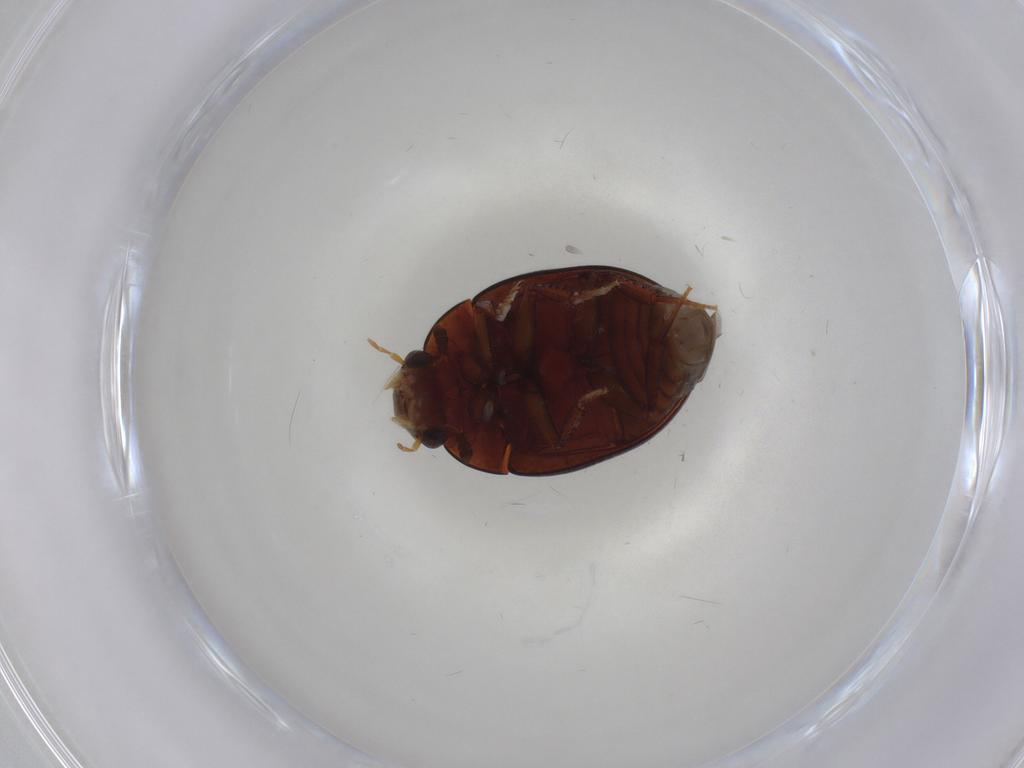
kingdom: Animalia
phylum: Arthropoda
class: Insecta
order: Coleoptera
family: Hydrophilidae
